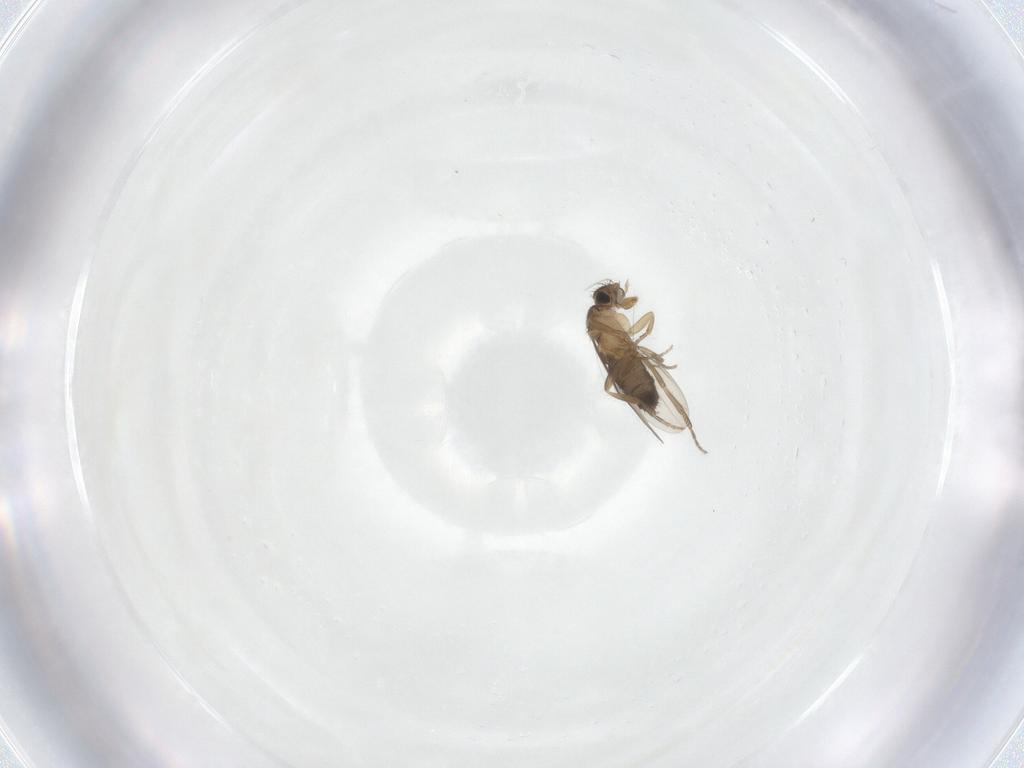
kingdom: Animalia
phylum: Arthropoda
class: Insecta
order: Diptera
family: Phoridae
